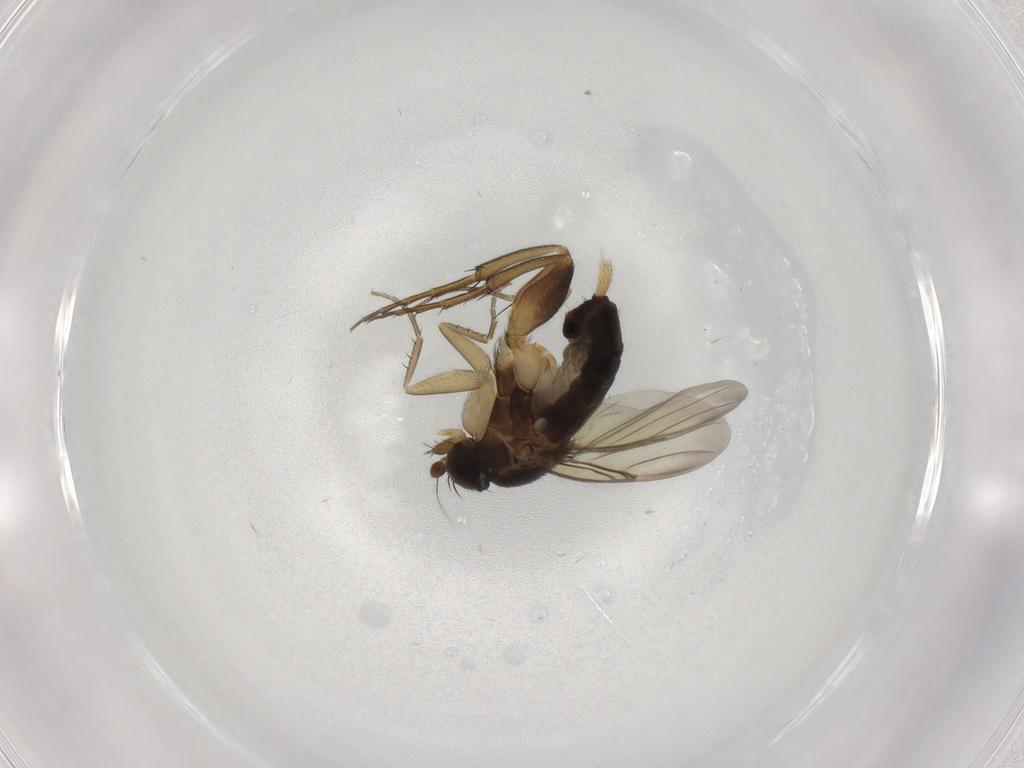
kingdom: Animalia
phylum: Arthropoda
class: Insecta
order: Diptera
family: Phoridae
